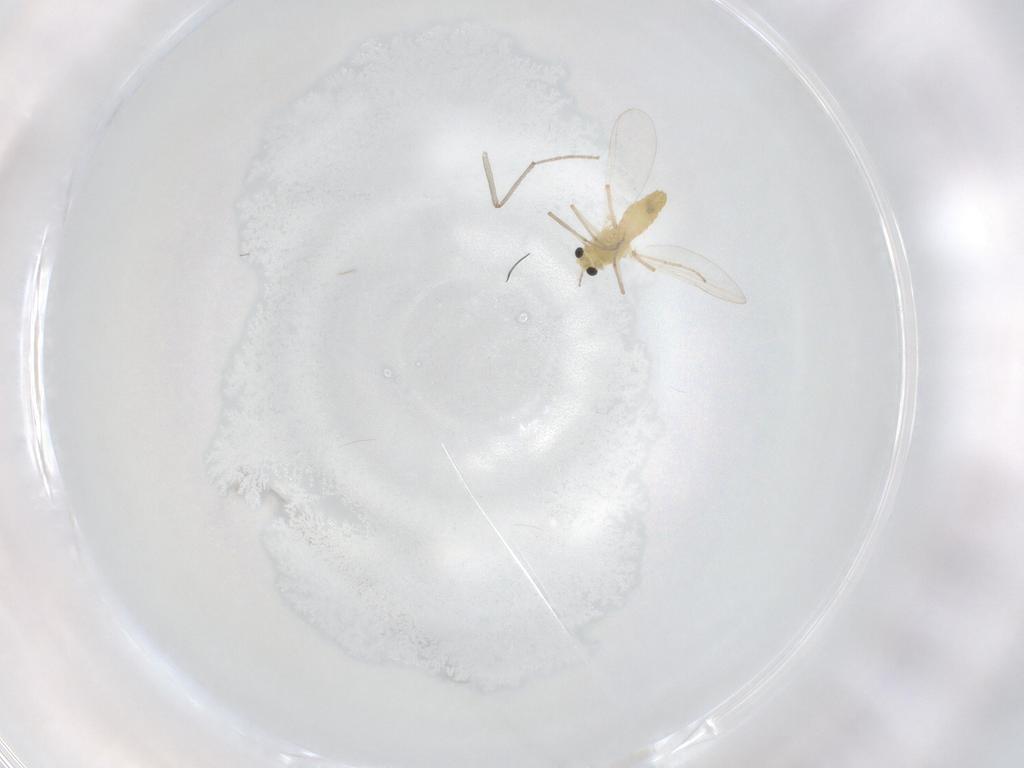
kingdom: Animalia
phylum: Arthropoda
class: Insecta
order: Diptera
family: Chironomidae
